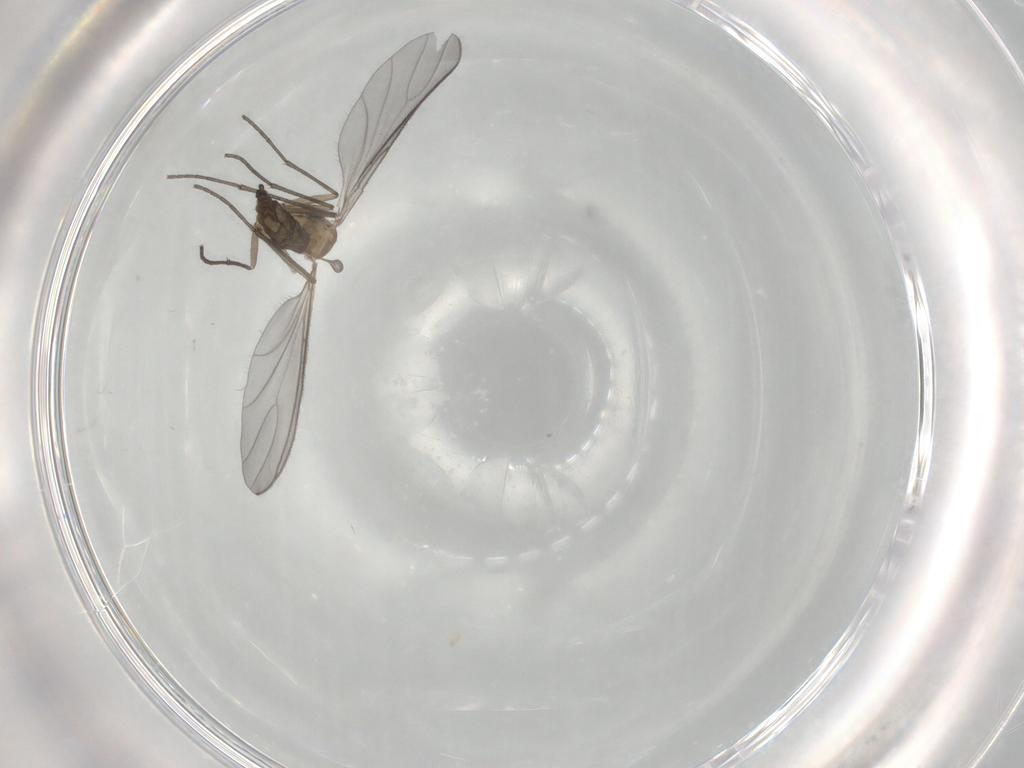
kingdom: Animalia
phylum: Arthropoda
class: Insecta
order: Diptera
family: Sciaridae
